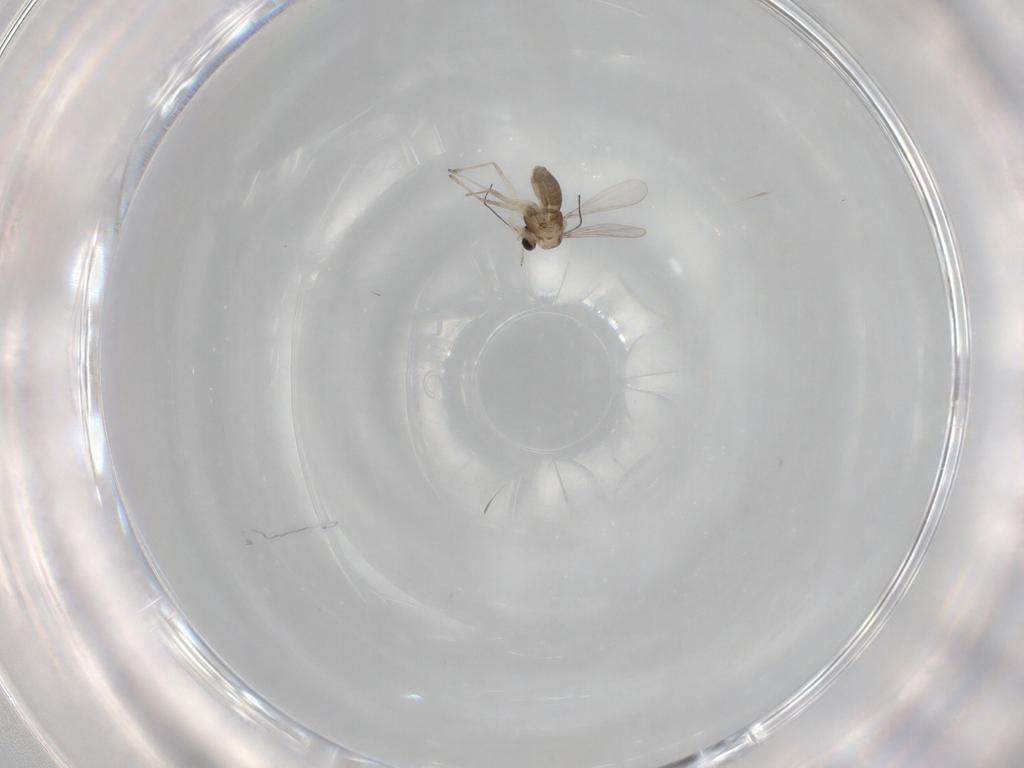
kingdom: Animalia
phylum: Arthropoda
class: Insecta
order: Diptera
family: Chironomidae
